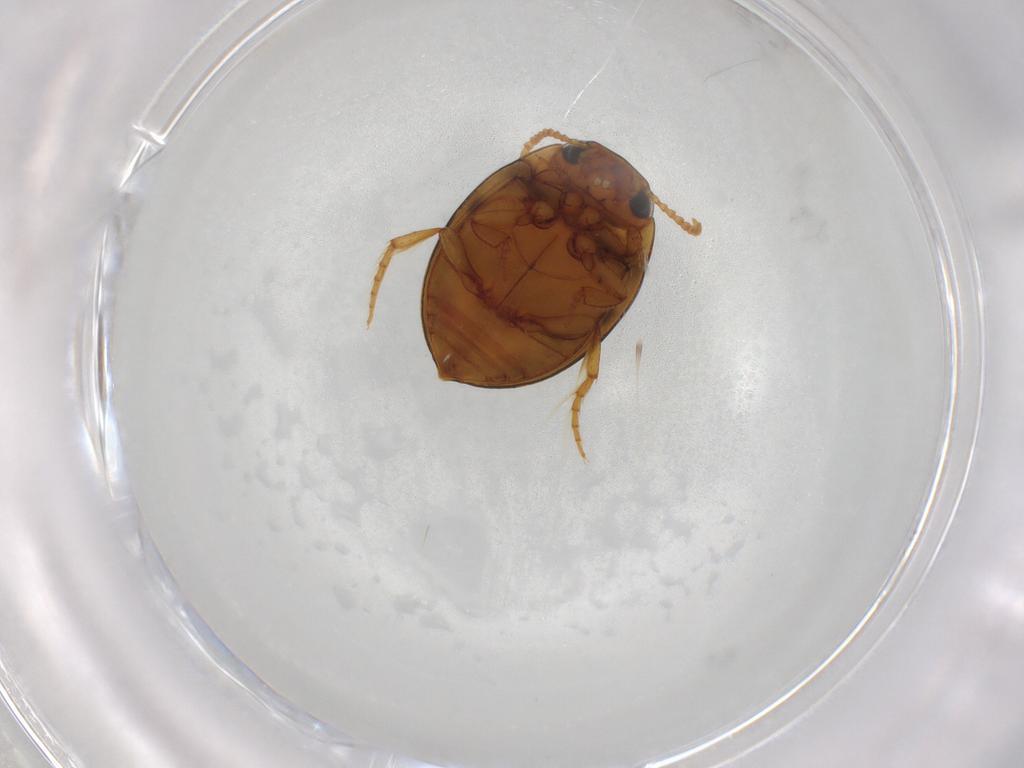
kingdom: Animalia
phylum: Arthropoda
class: Insecta
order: Coleoptera
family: Dytiscidae
